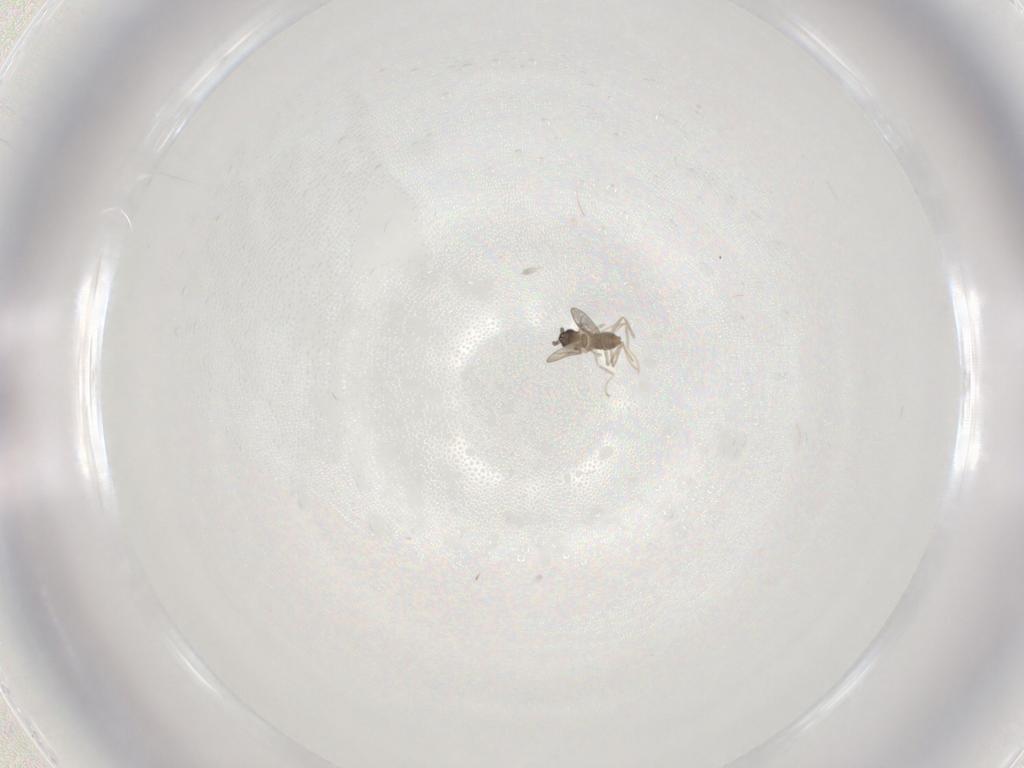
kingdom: Animalia
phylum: Arthropoda
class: Insecta
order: Diptera
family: Cecidomyiidae
